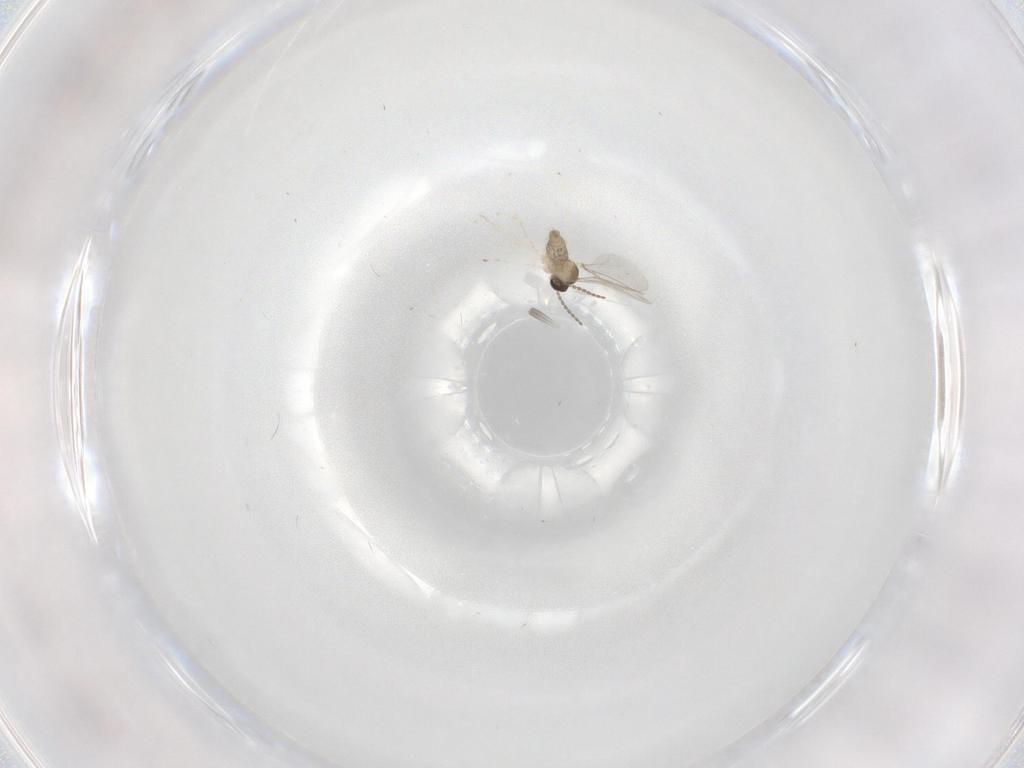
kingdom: Animalia
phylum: Arthropoda
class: Insecta
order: Diptera
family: Cecidomyiidae
